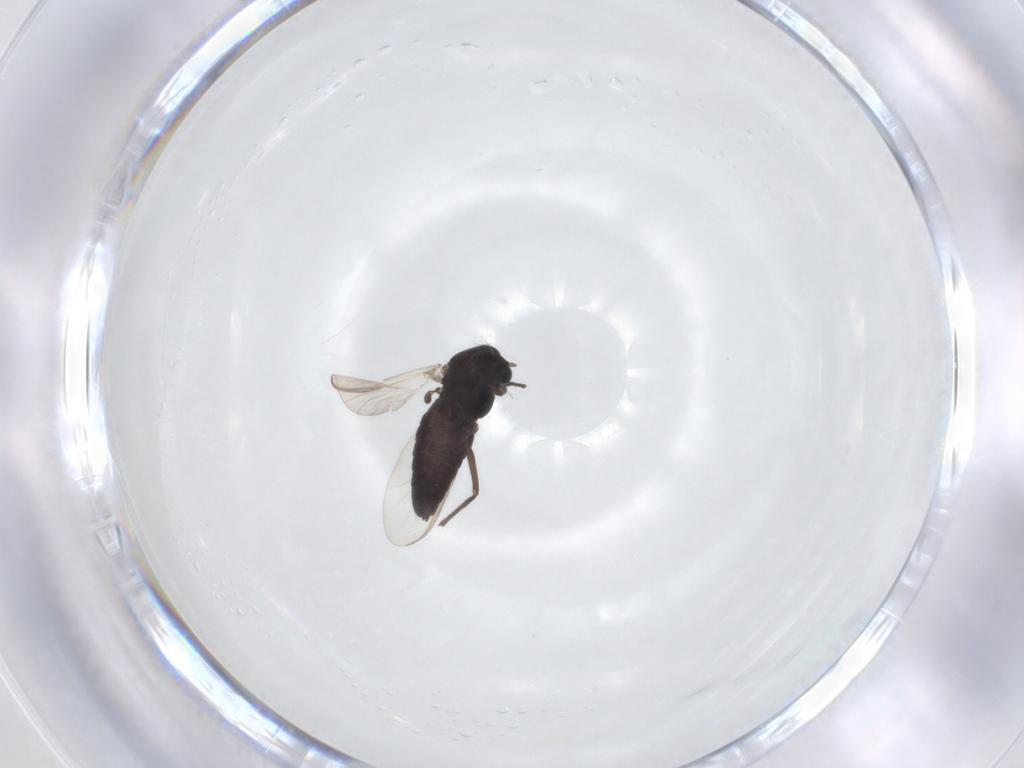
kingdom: Animalia
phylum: Arthropoda
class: Insecta
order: Diptera
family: Chironomidae
